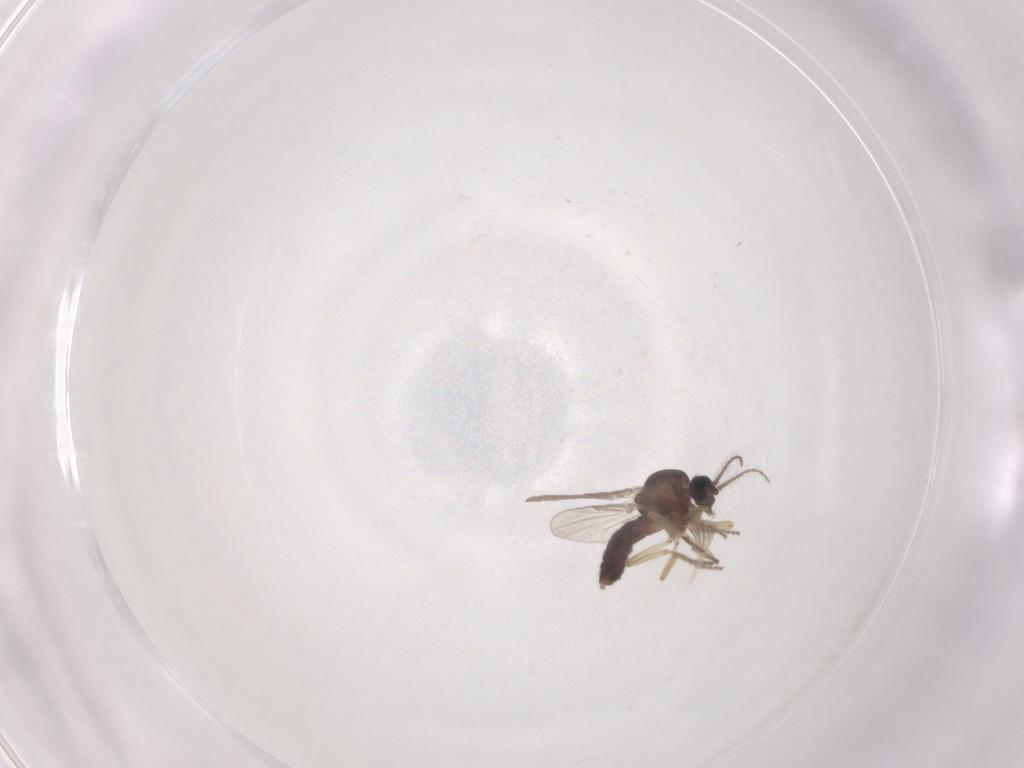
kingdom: Animalia
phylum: Arthropoda
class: Insecta
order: Diptera
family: Ceratopogonidae
